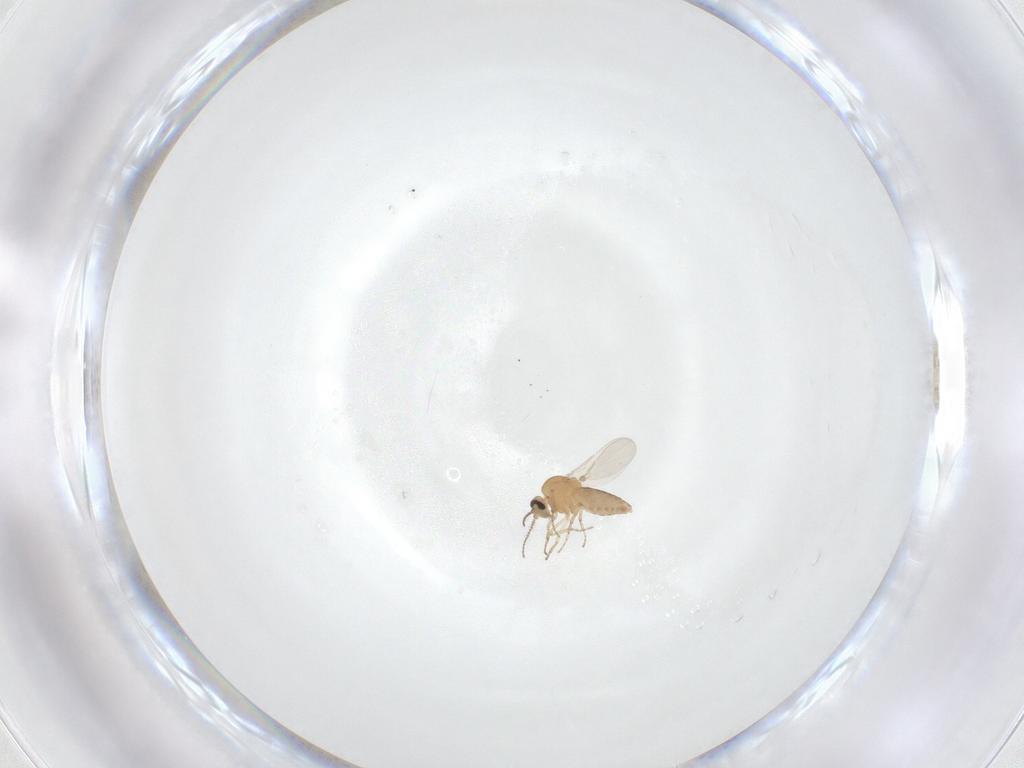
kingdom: Animalia
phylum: Arthropoda
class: Insecta
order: Diptera
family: Ceratopogonidae
